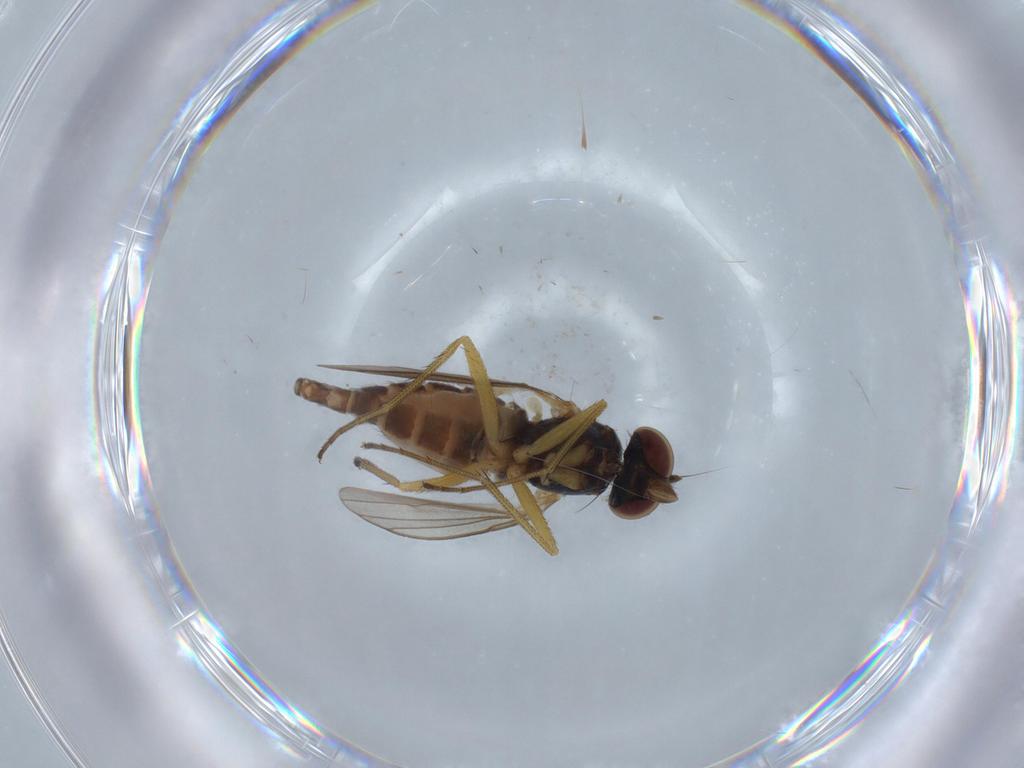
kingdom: Animalia
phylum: Arthropoda
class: Insecta
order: Diptera
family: Dolichopodidae
